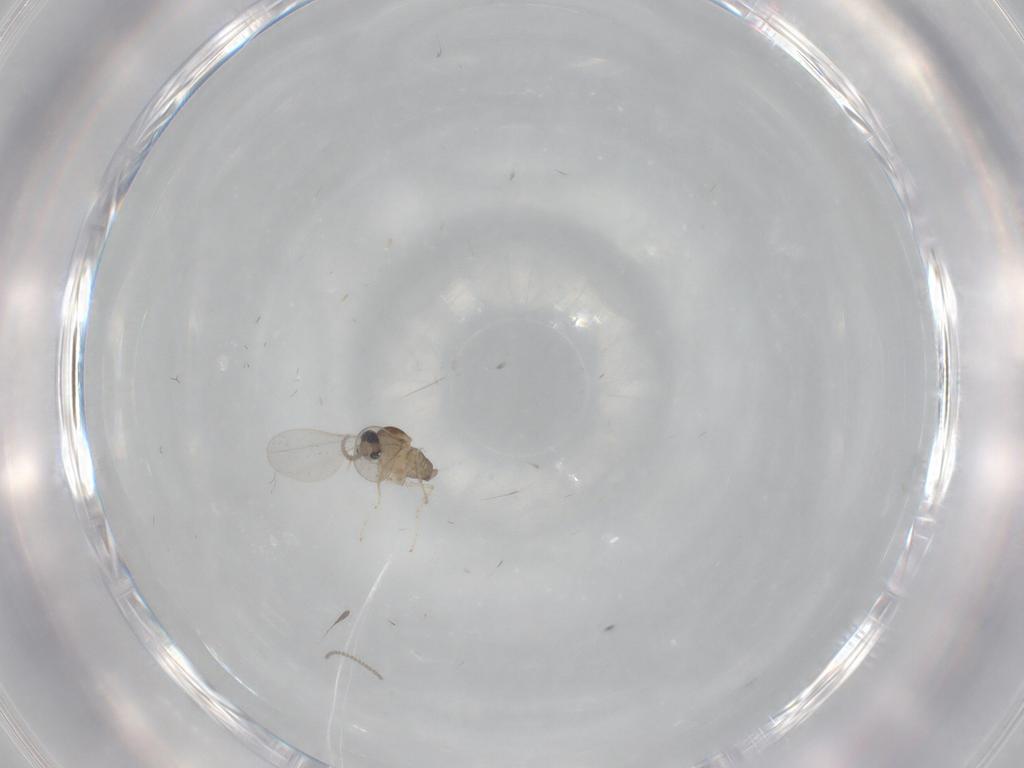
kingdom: Animalia
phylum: Arthropoda
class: Insecta
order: Diptera
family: Cecidomyiidae
